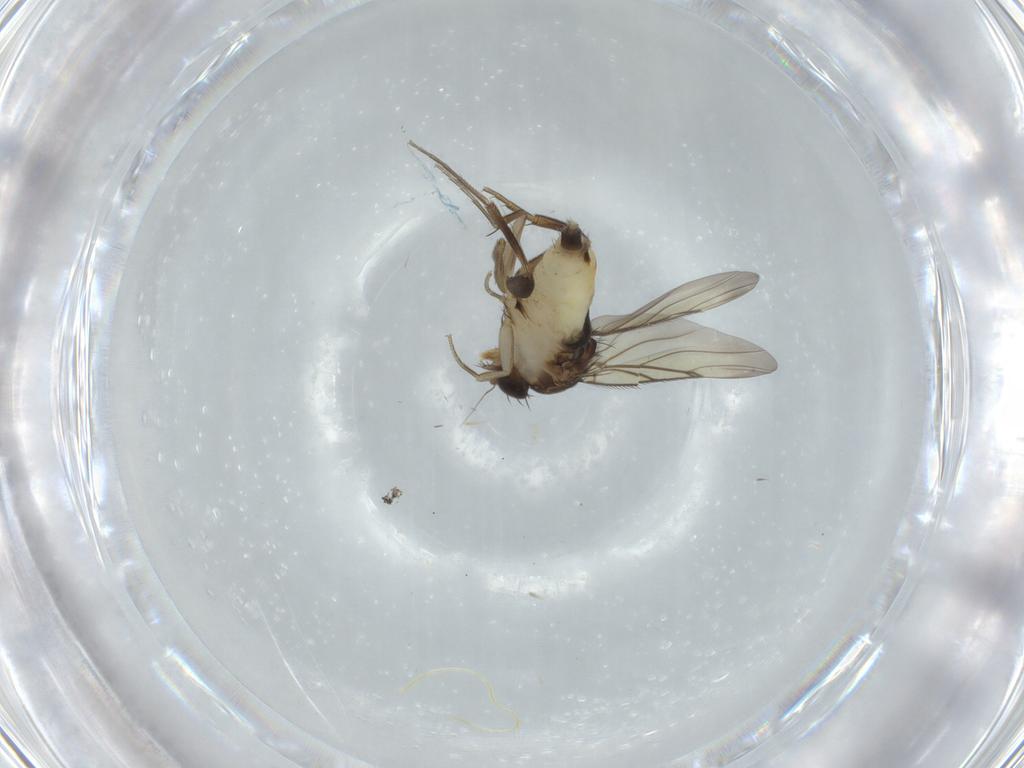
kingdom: Animalia
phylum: Arthropoda
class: Insecta
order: Diptera
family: Phoridae
